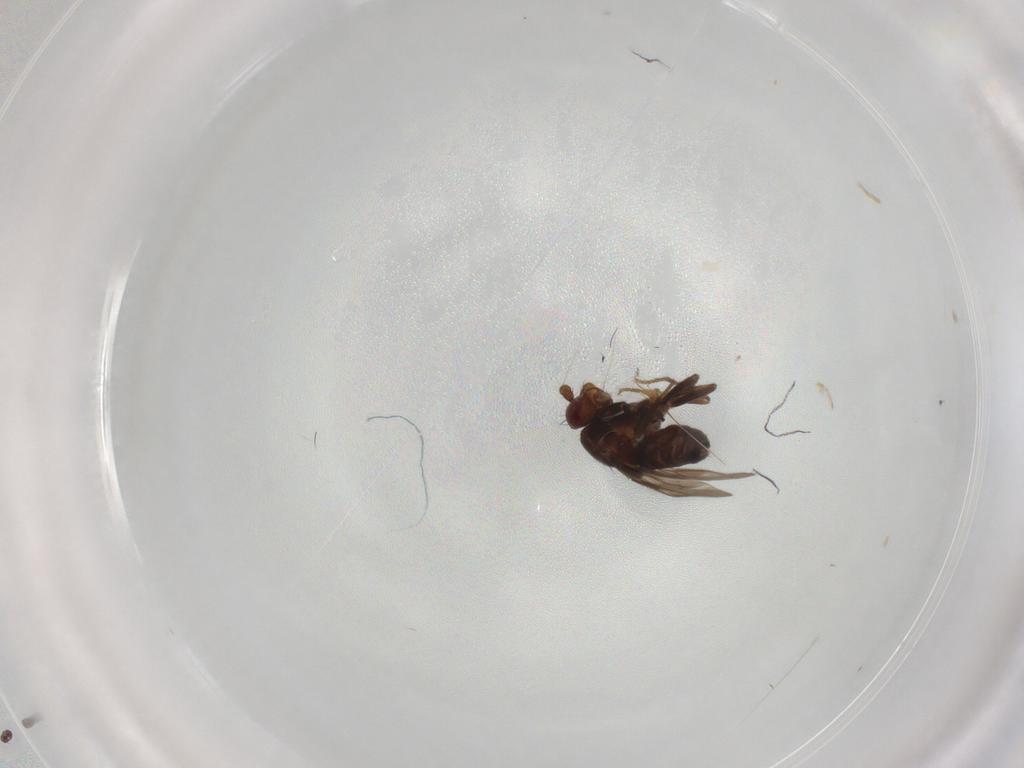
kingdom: Animalia
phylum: Arthropoda
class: Insecta
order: Diptera
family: Sphaeroceridae
